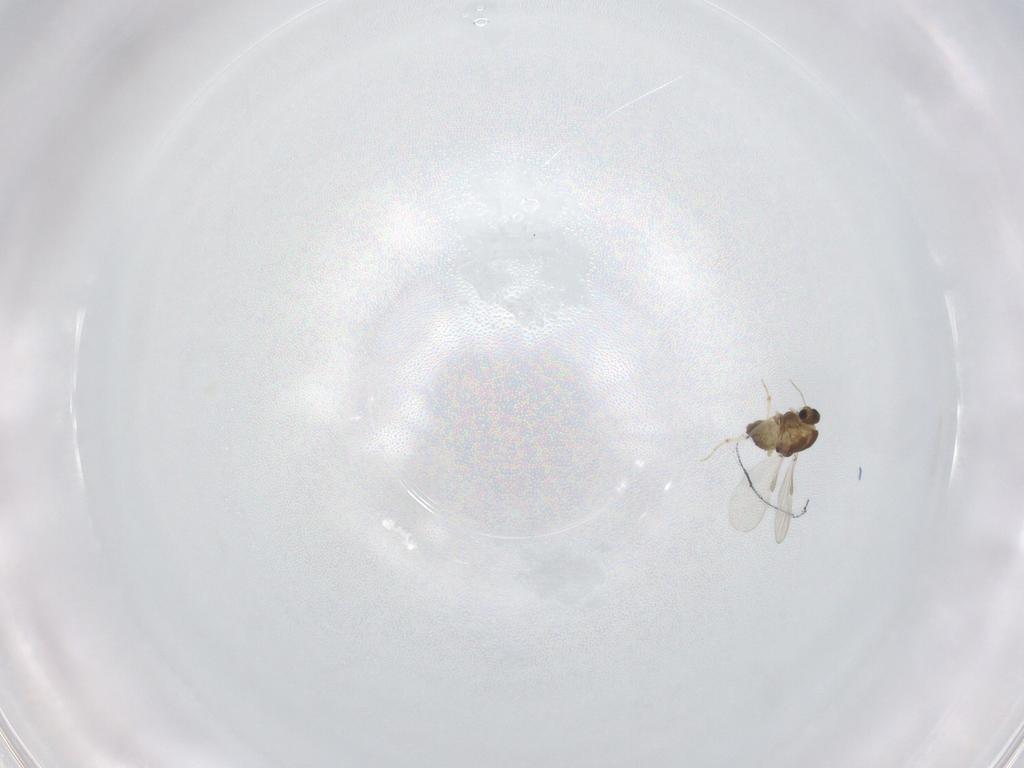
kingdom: Animalia
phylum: Arthropoda
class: Insecta
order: Diptera
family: Chironomidae
